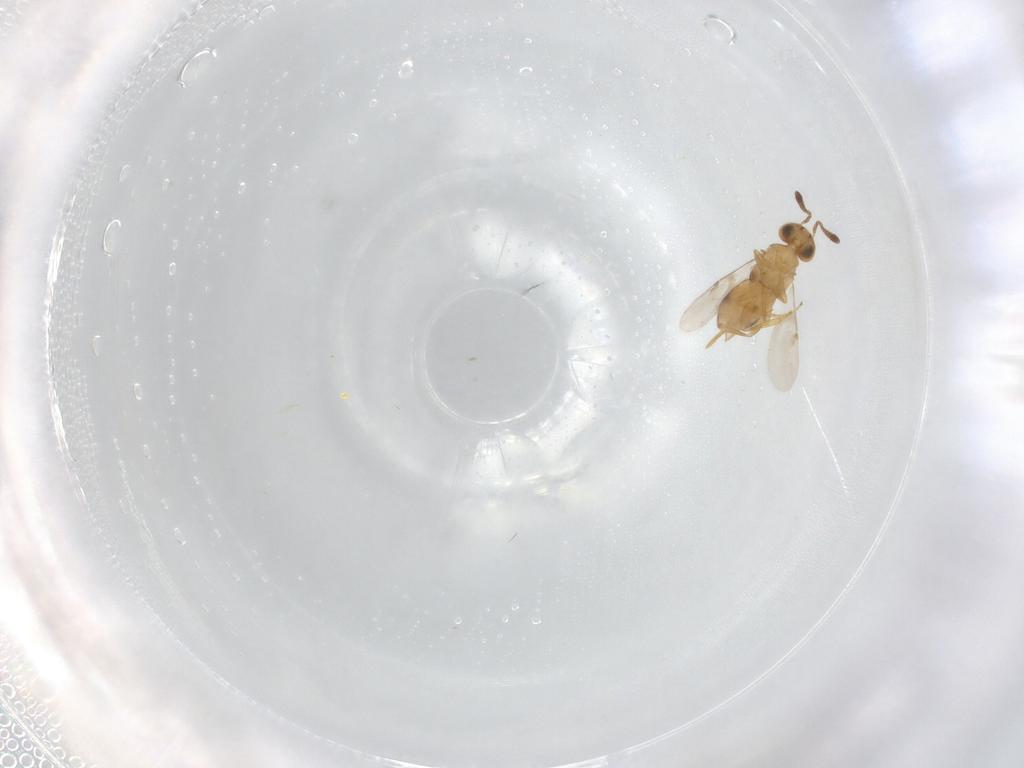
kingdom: Animalia
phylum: Arthropoda
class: Insecta
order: Hymenoptera
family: Encyrtidae
